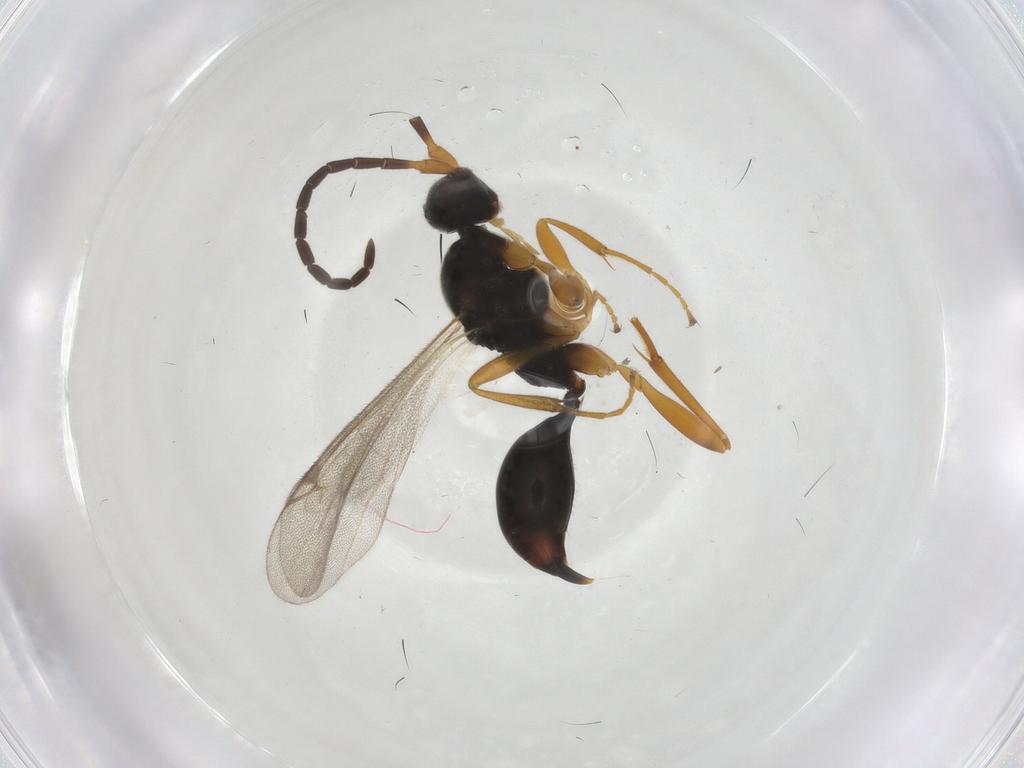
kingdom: Animalia
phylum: Arthropoda
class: Insecta
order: Hymenoptera
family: Proctotrupidae
